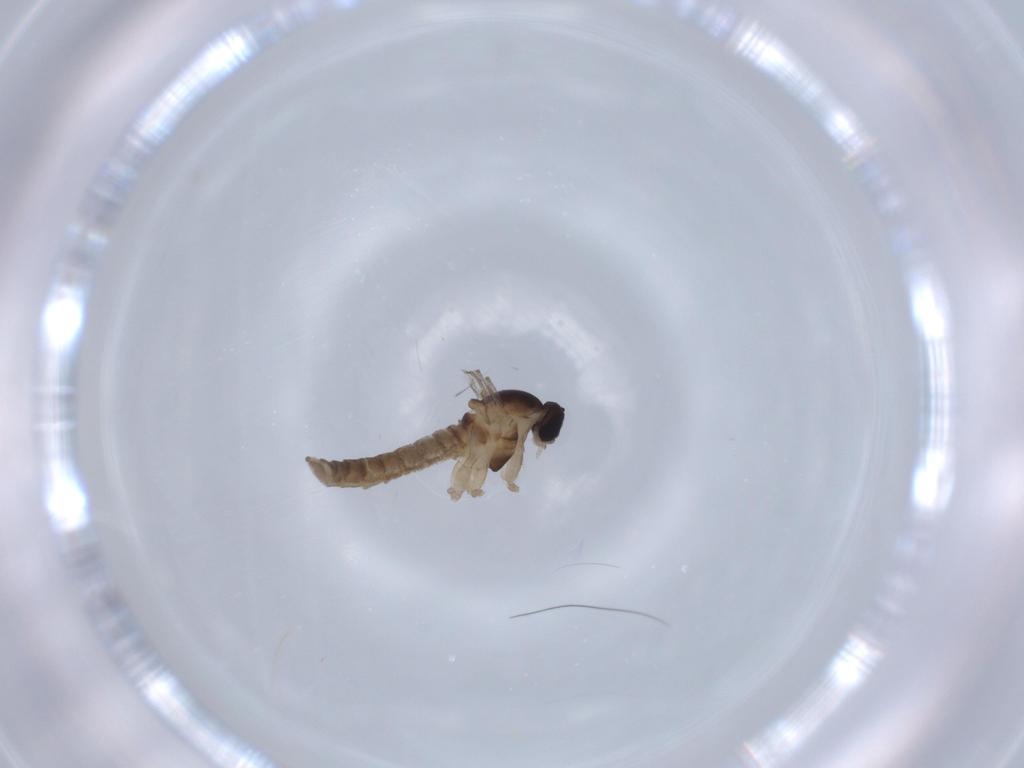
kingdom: Animalia
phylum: Arthropoda
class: Insecta
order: Diptera
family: Cecidomyiidae
